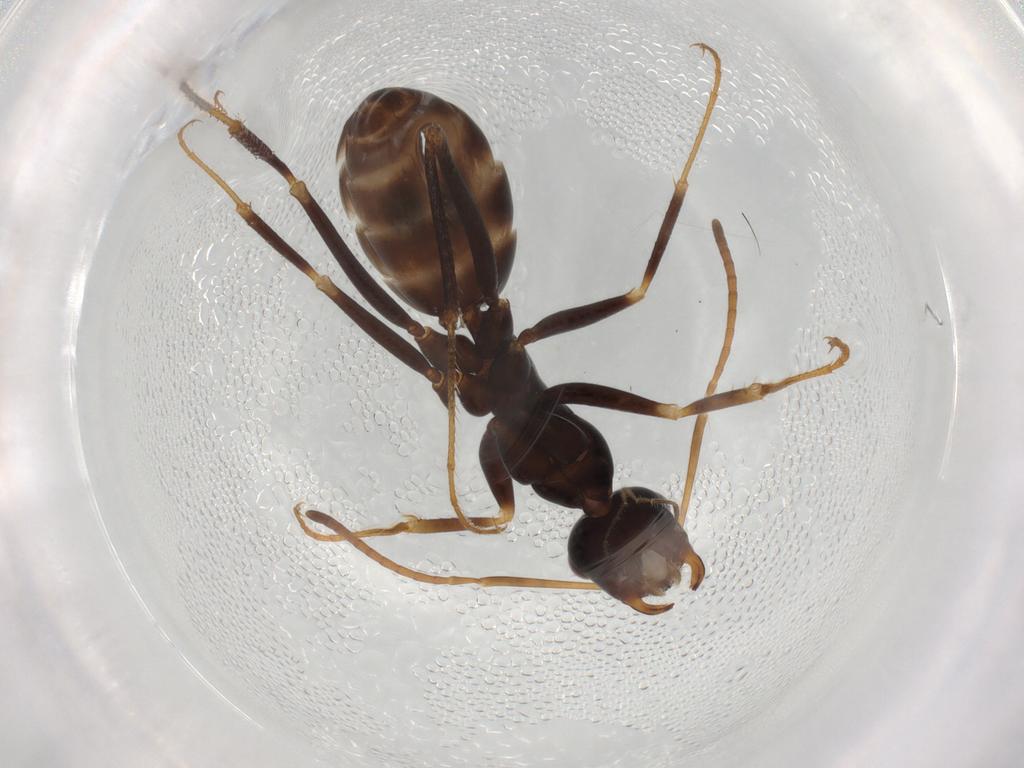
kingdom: Animalia
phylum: Arthropoda
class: Insecta
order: Hymenoptera
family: Formicidae
